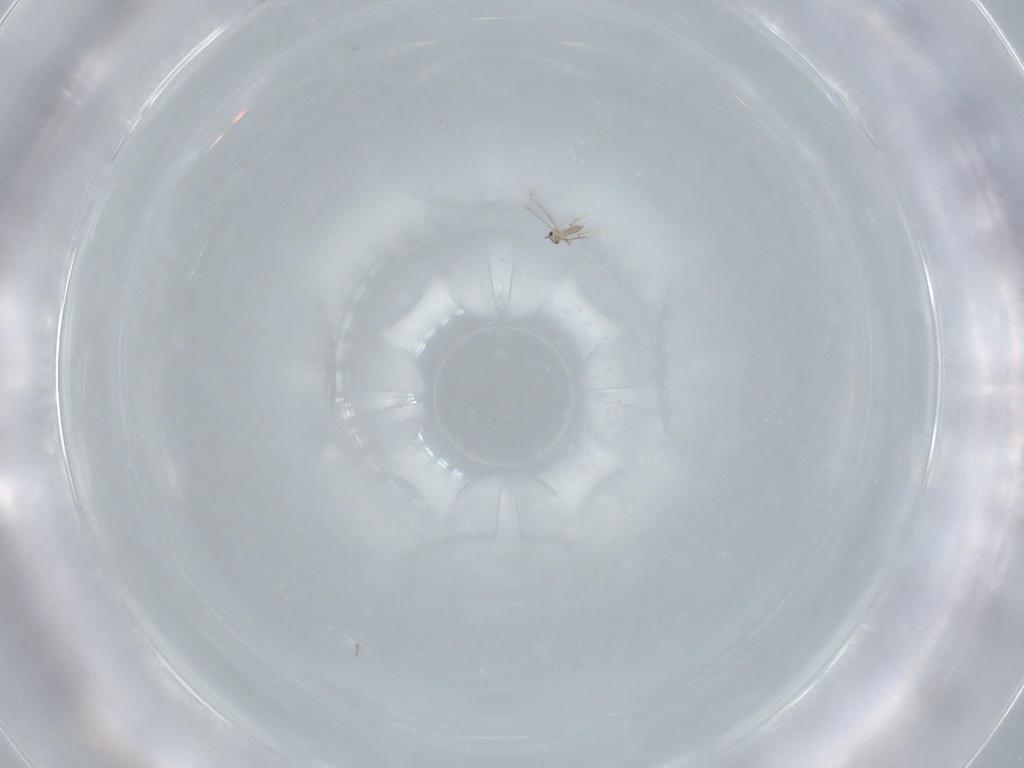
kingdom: Animalia
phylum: Arthropoda
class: Insecta
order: Hymenoptera
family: Mymaridae
